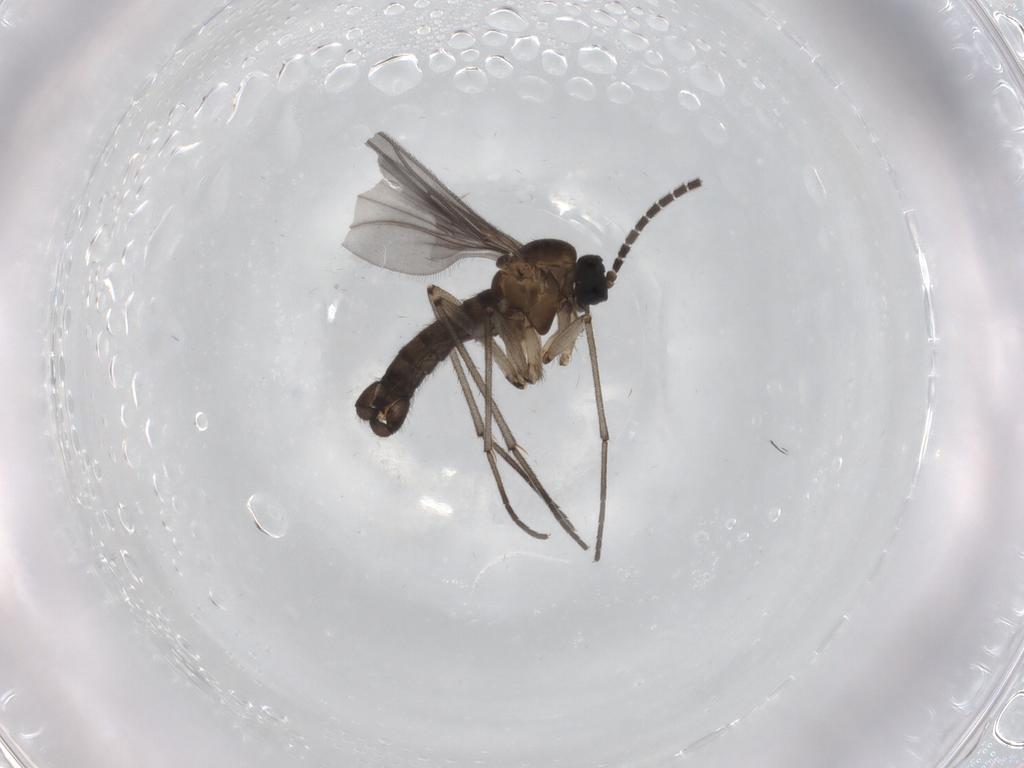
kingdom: Animalia
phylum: Arthropoda
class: Insecta
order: Diptera
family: Sciaridae
